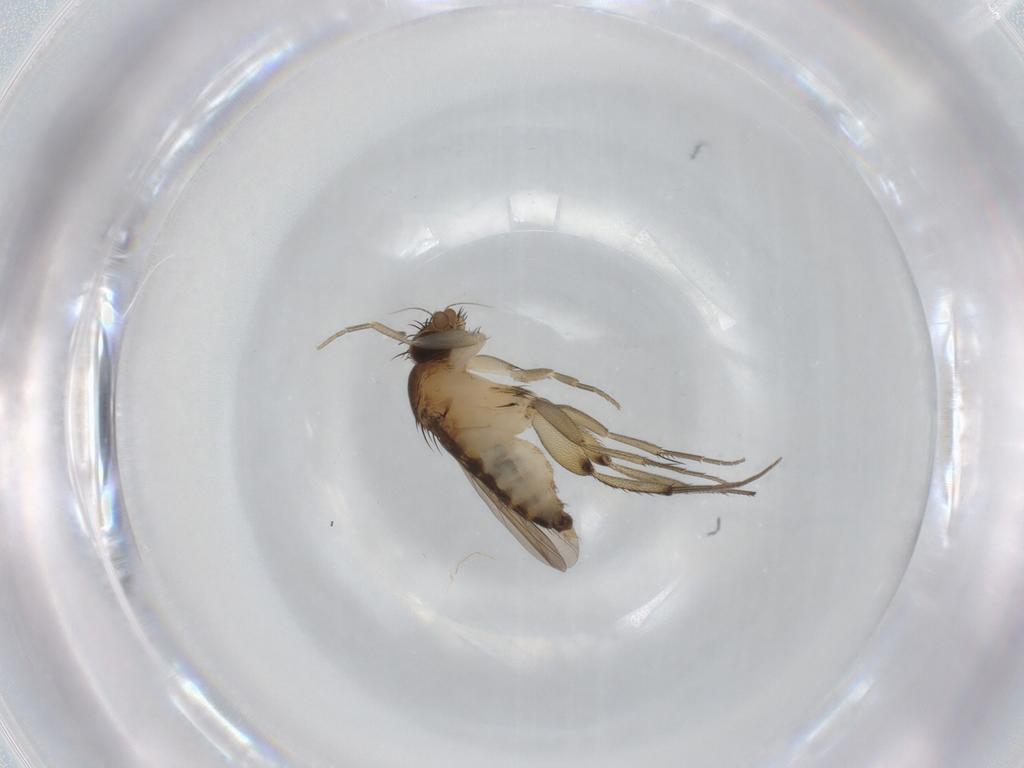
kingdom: Animalia
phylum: Arthropoda
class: Insecta
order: Diptera
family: Phoridae
